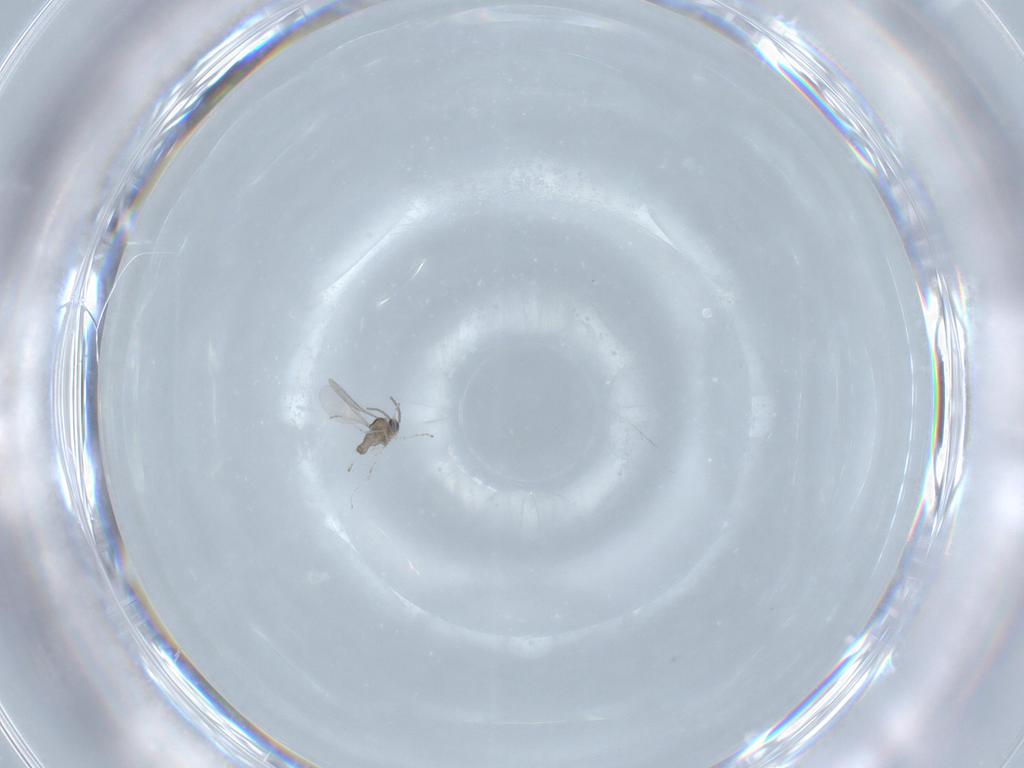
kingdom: Animalia
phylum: Arthropoda
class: Insecta
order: Diptera
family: Cecidomyiidae
